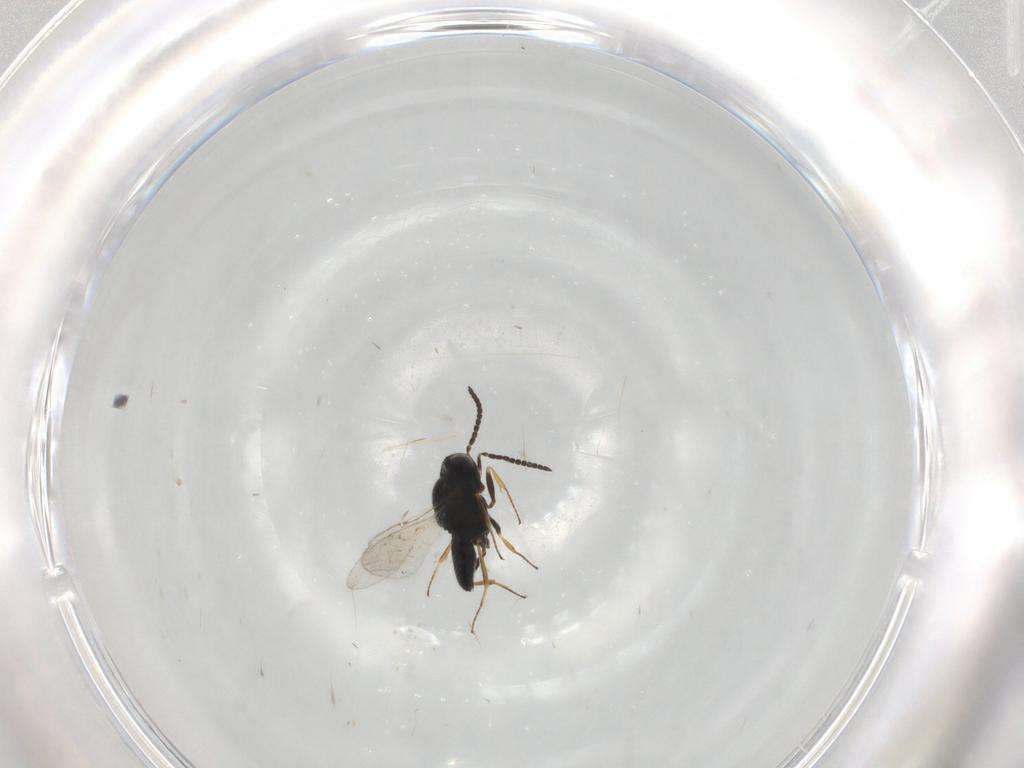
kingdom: Animalia
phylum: Arthropoda
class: Insecta
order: Hymenoptera
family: Scelionidae
